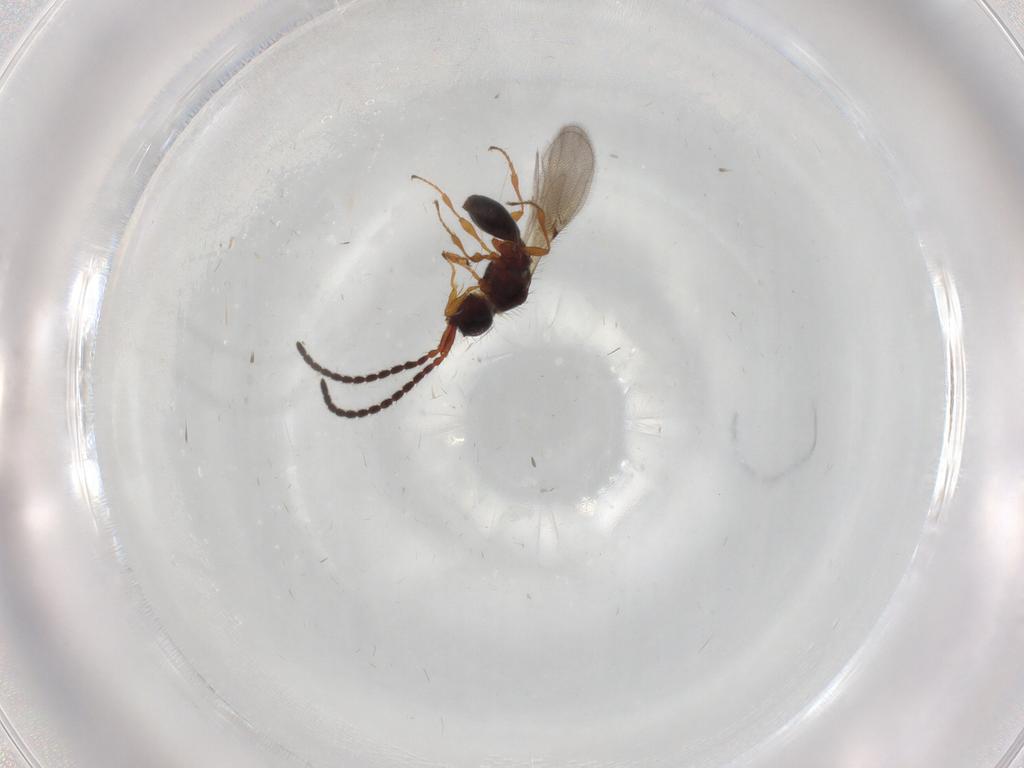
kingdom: Animalia
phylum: Arthropoda
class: Insecta
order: Hymenoptera
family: Diapriidae
